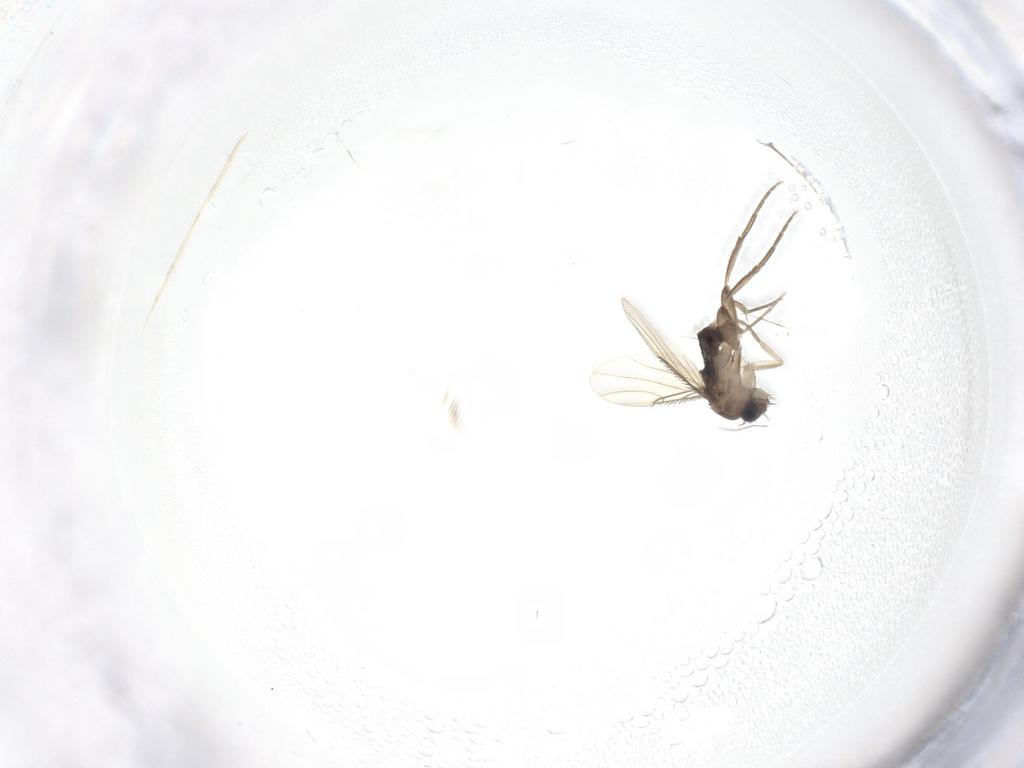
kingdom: Animalia
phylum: Arthropoda
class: Insecta
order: Diptera
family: Phoridae
